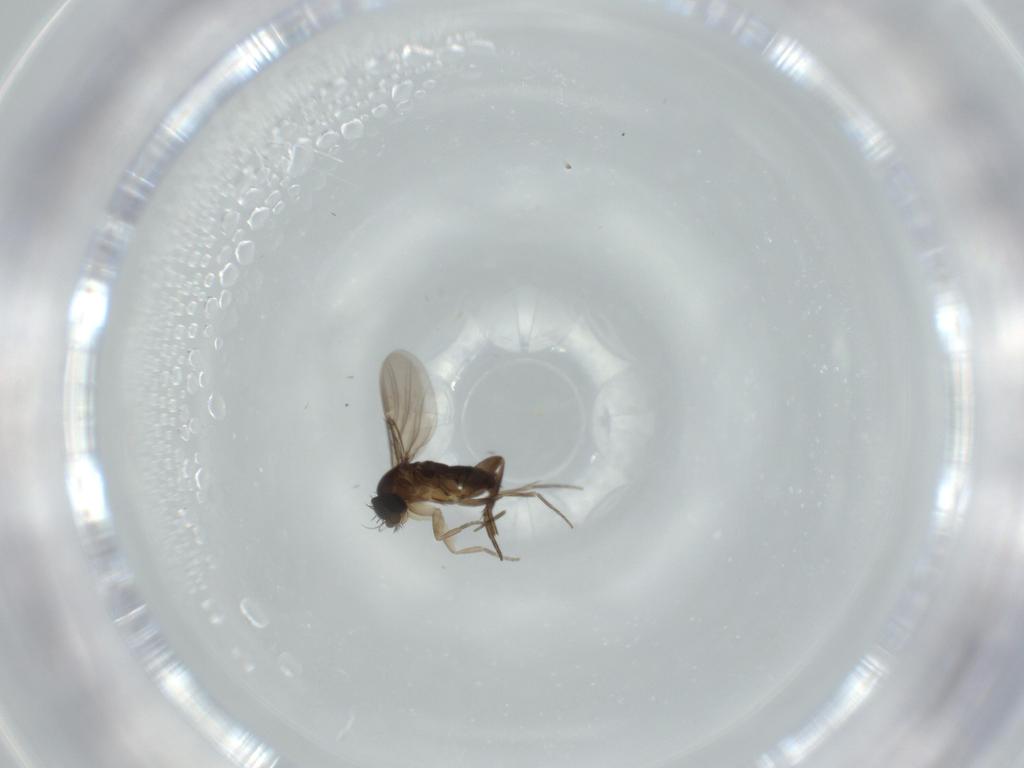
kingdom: Animalia
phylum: Arthropoda
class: Insecta
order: Diptera
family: Phoridae
